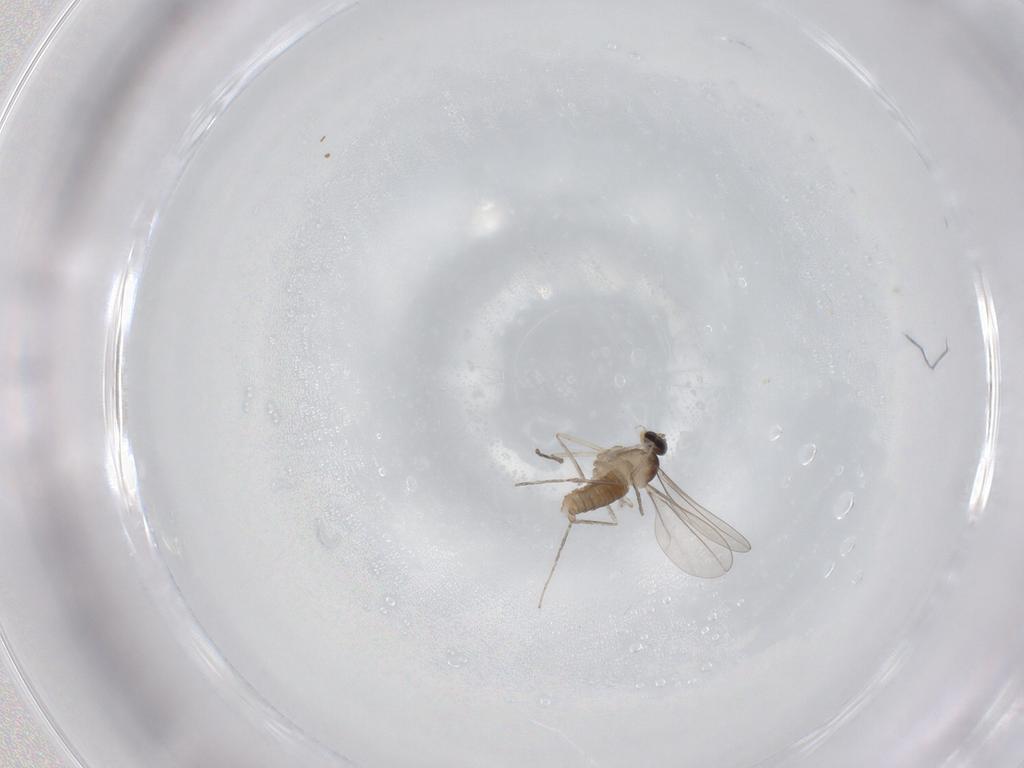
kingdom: Animalia
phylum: Arthropoda
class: Insecta
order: Diptera
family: Cecidomyiidae
